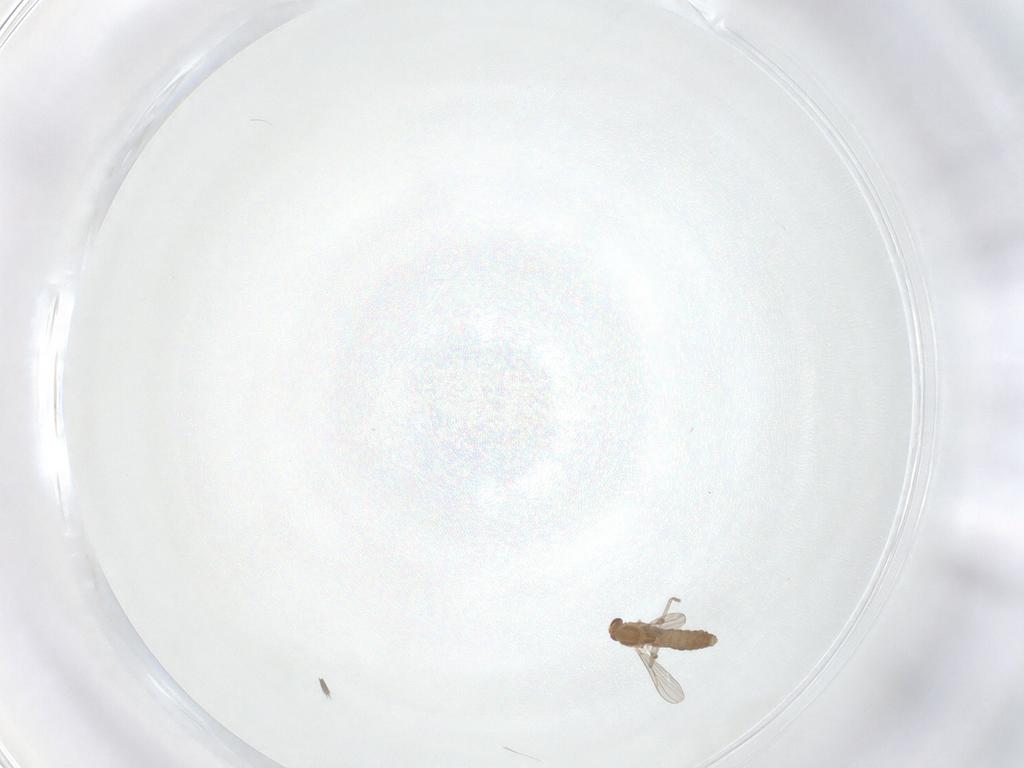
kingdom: Animalia
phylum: Arthropoda
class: Insecta
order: Diptera
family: Chironomidae
